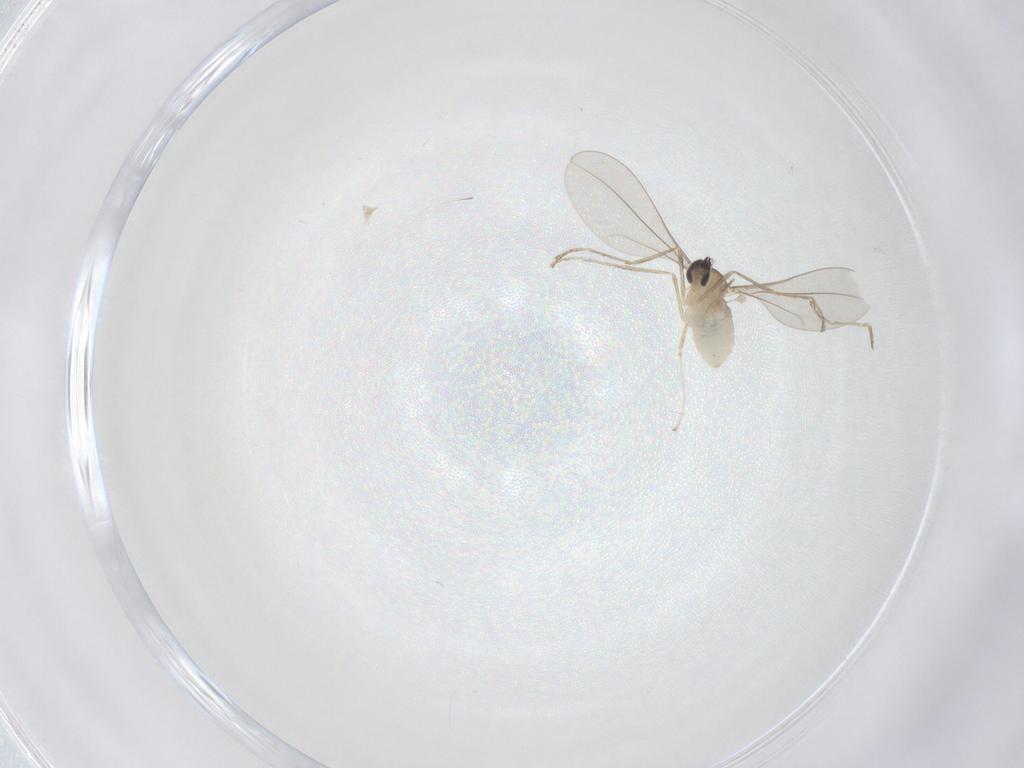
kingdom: Animalia
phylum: Arthropoda
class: Insecta
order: Diptera
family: Cecidomyiidae
